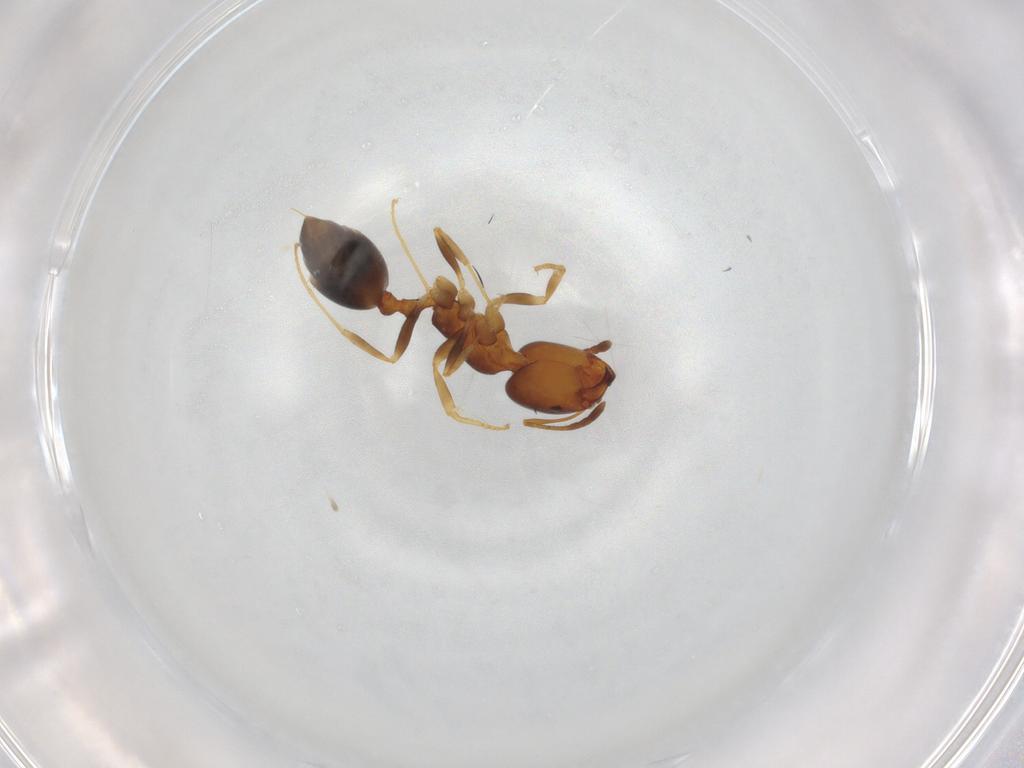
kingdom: Animalia
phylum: Arthropoda
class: Insecta
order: Hymenoptera
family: Formicidae
